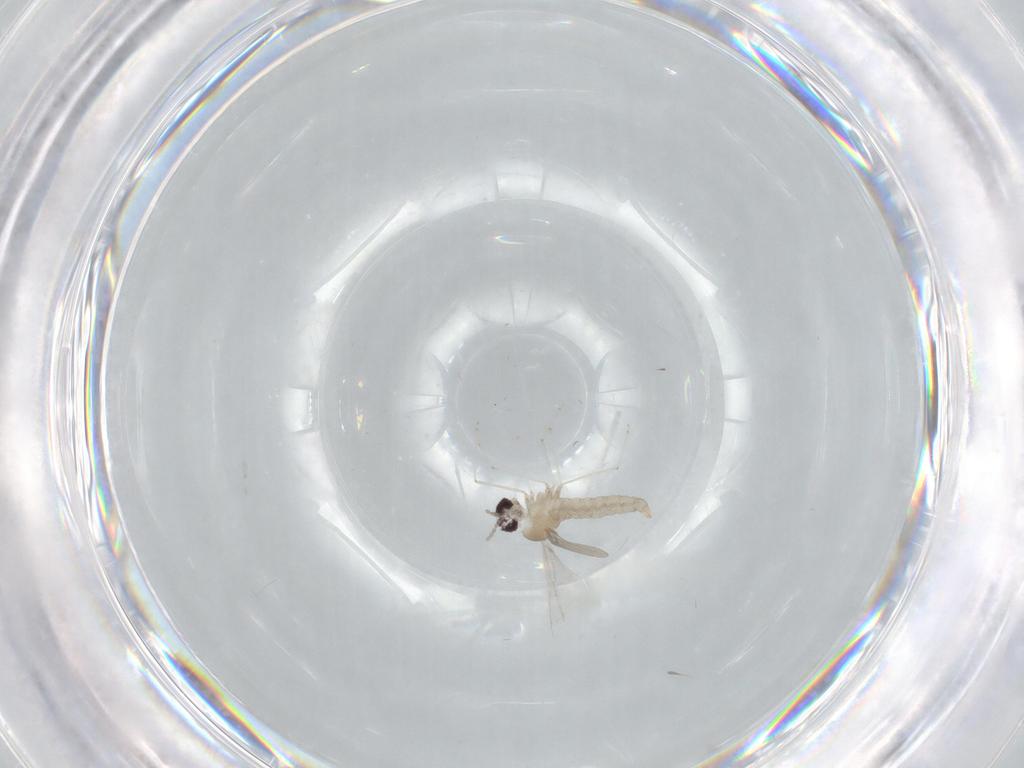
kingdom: Animalia
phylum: Arthropoda
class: Insecta
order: Diptera
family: Cecidomyiidae
